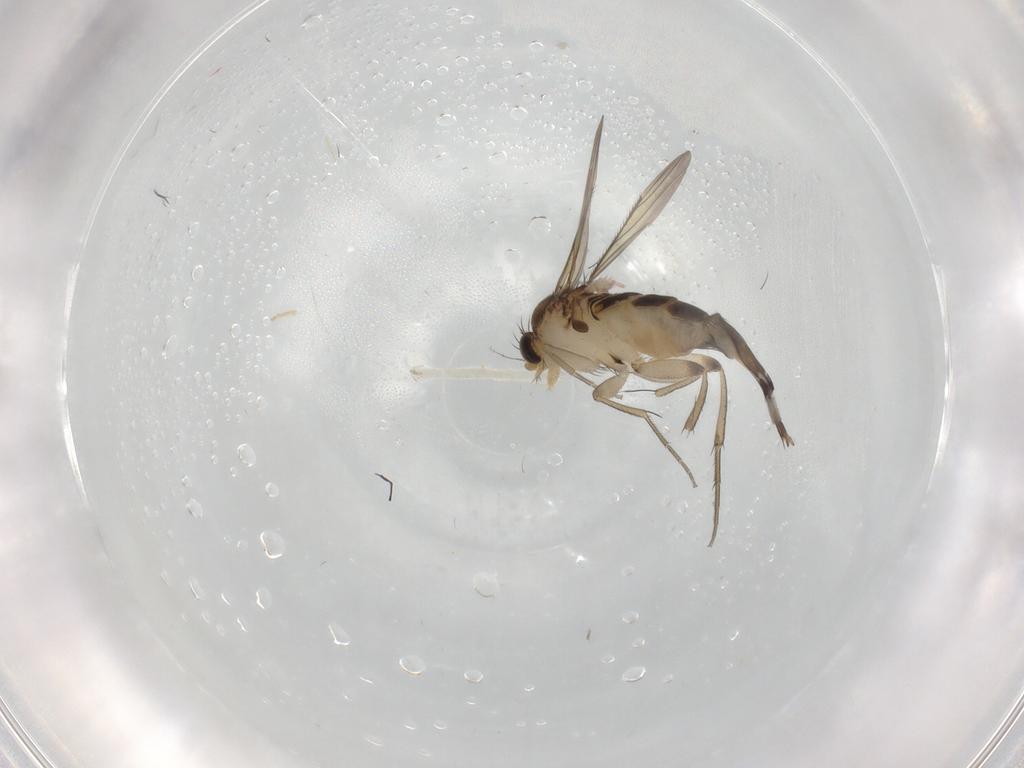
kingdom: Animalia
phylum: Arthropoda
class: Insecta
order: Diptera
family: Phoridae
